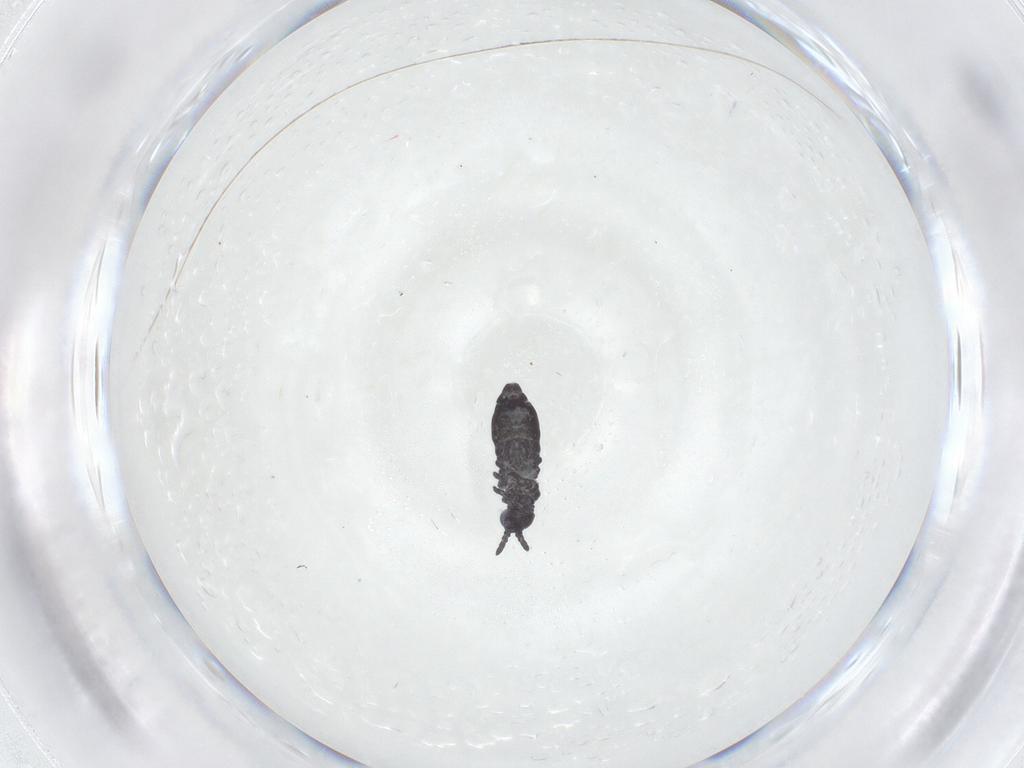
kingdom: Animalia
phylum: Arthropoda
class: Collembola
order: Poduromorpha
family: Hypogastruridae
